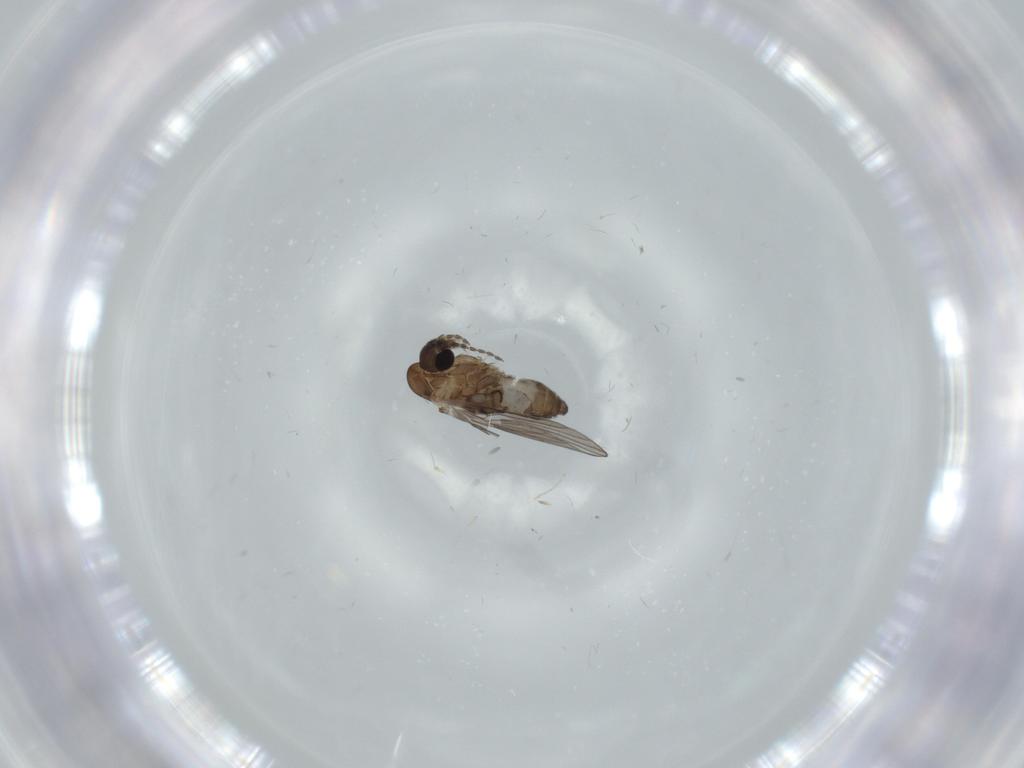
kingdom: Animalia
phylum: Arthropoda
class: Insecta
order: Diptera
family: Psychodidae
